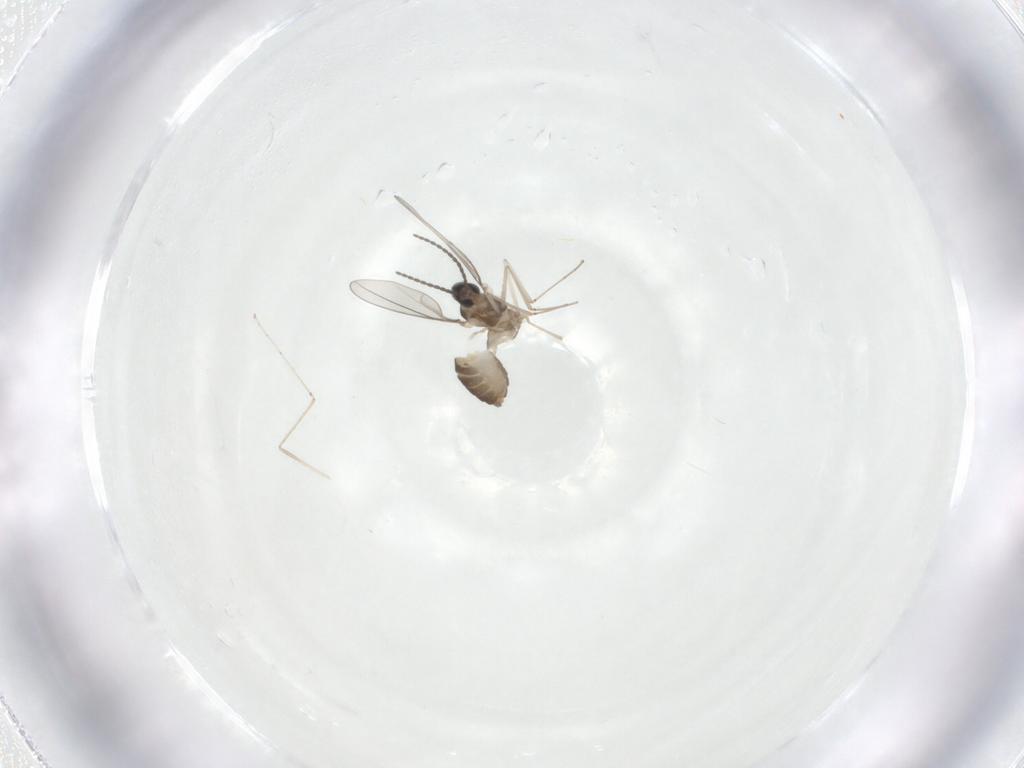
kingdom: Animalia
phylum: Arthropoda
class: Insecta
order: Diptera
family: Cecidomyiidae
